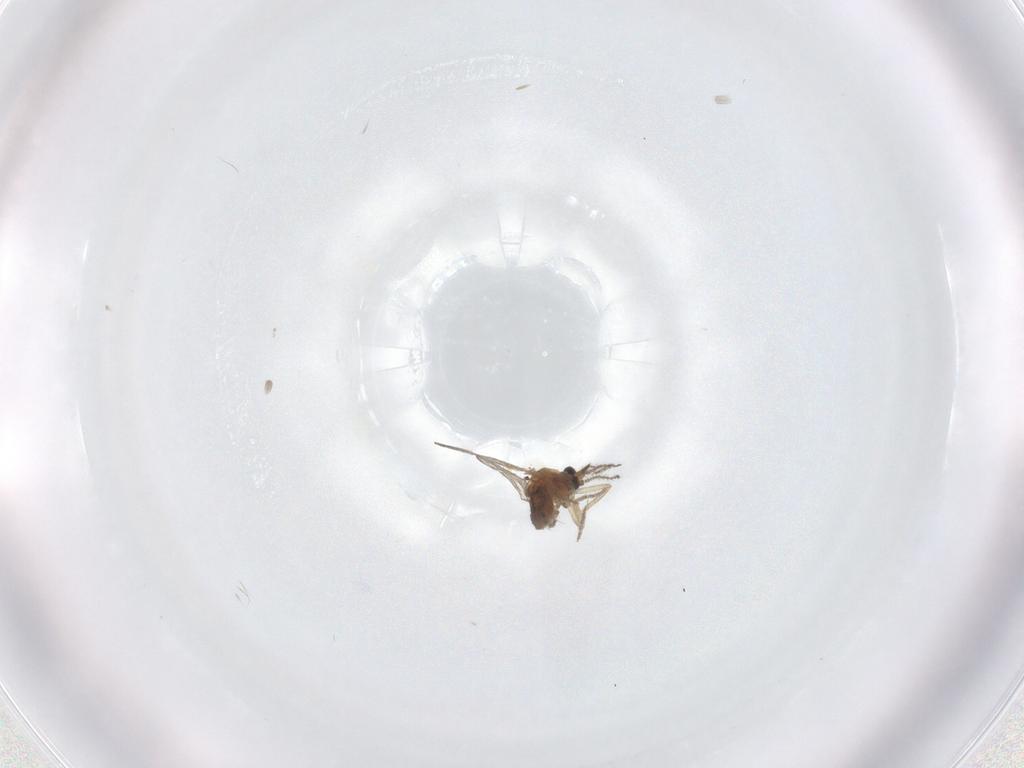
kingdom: Animalia
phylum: Arthropoda
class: Insecta
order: Diptera
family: Ceratopogonidae
